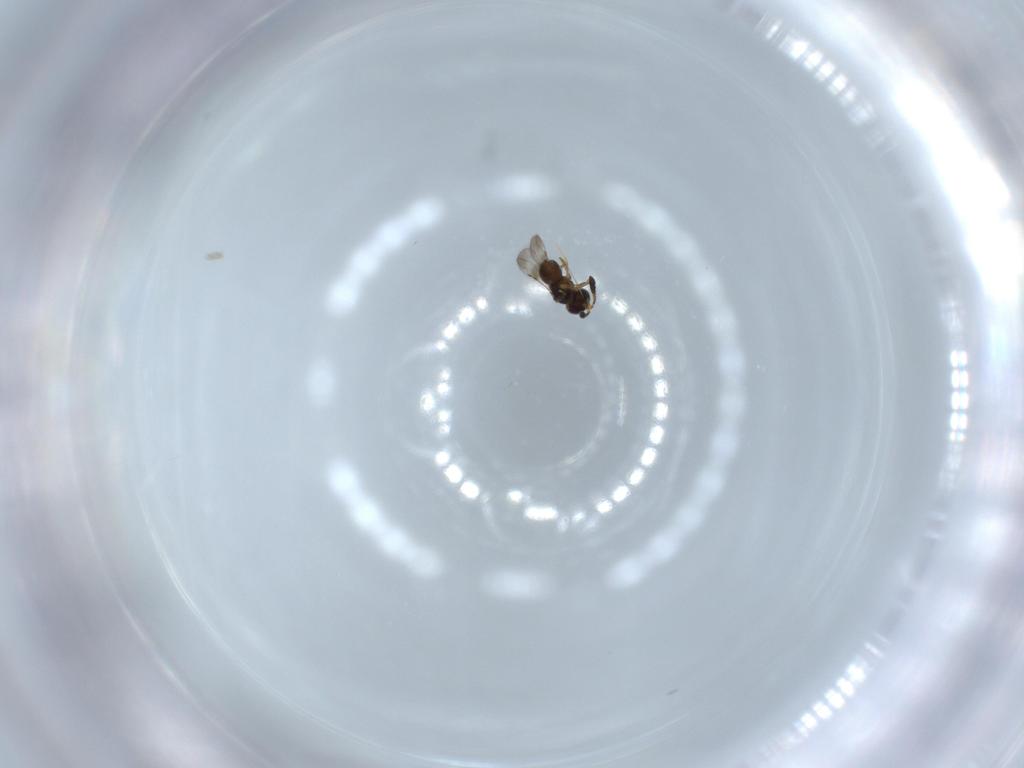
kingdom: Animalia
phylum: Arthropoda
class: Insecta
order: Hymenoptera
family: Ceraphronidae
